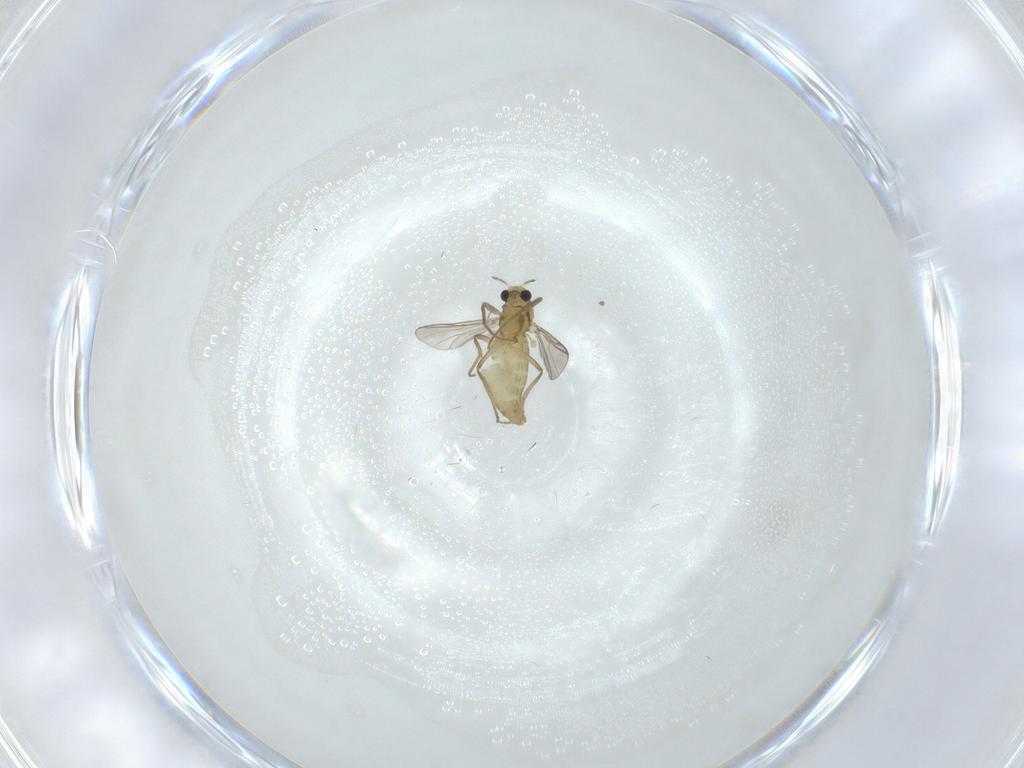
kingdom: Animalia
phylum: Arthropoda
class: Insecta
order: Diptera
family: Chironomidae
